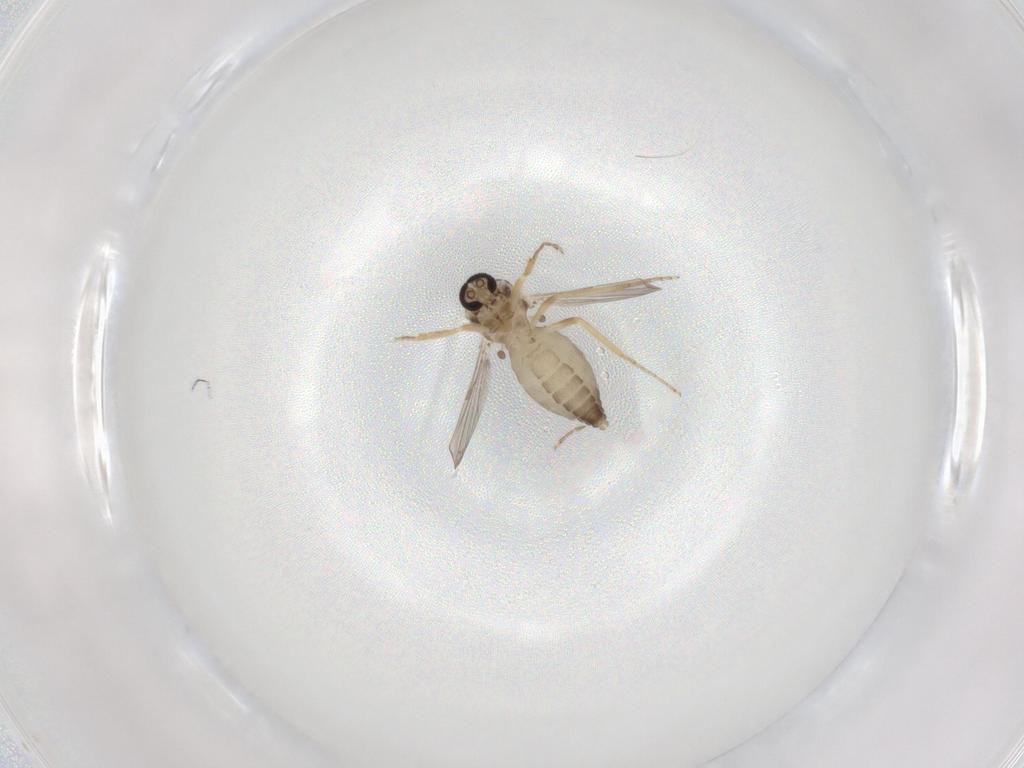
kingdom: Animalia
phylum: Arthropoda
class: Insecta
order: Diptera
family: Ceratopogonidae
